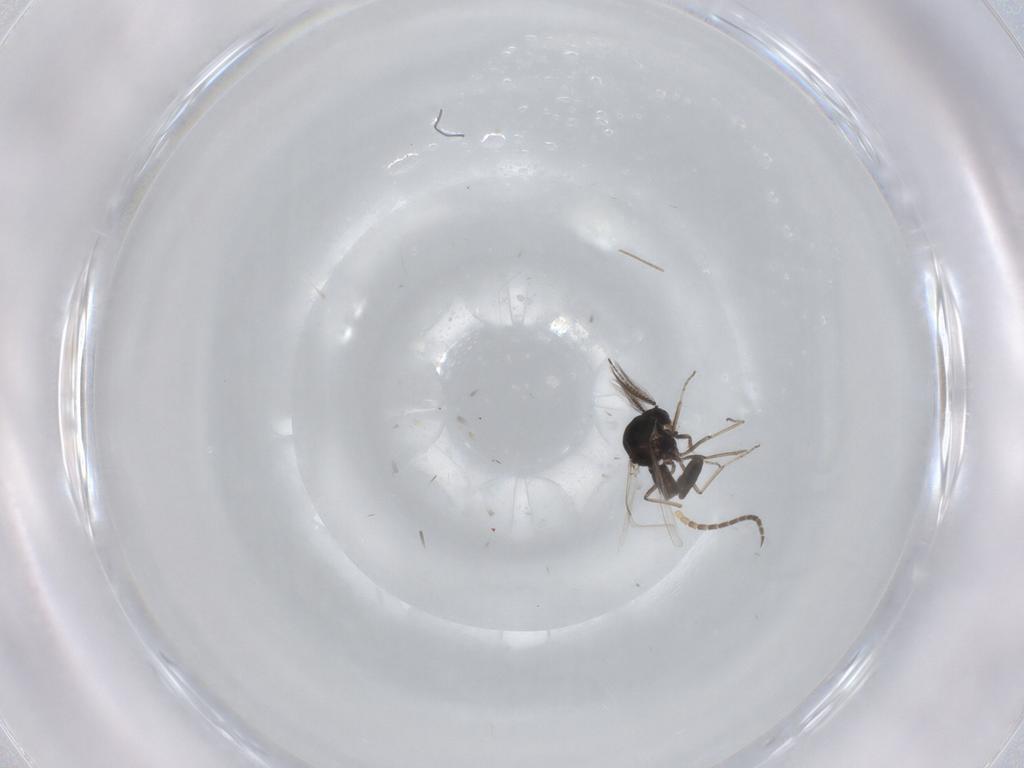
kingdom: Animalia
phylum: Arthropoda
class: Insecta
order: Diptera
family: Ceratopogonidae
